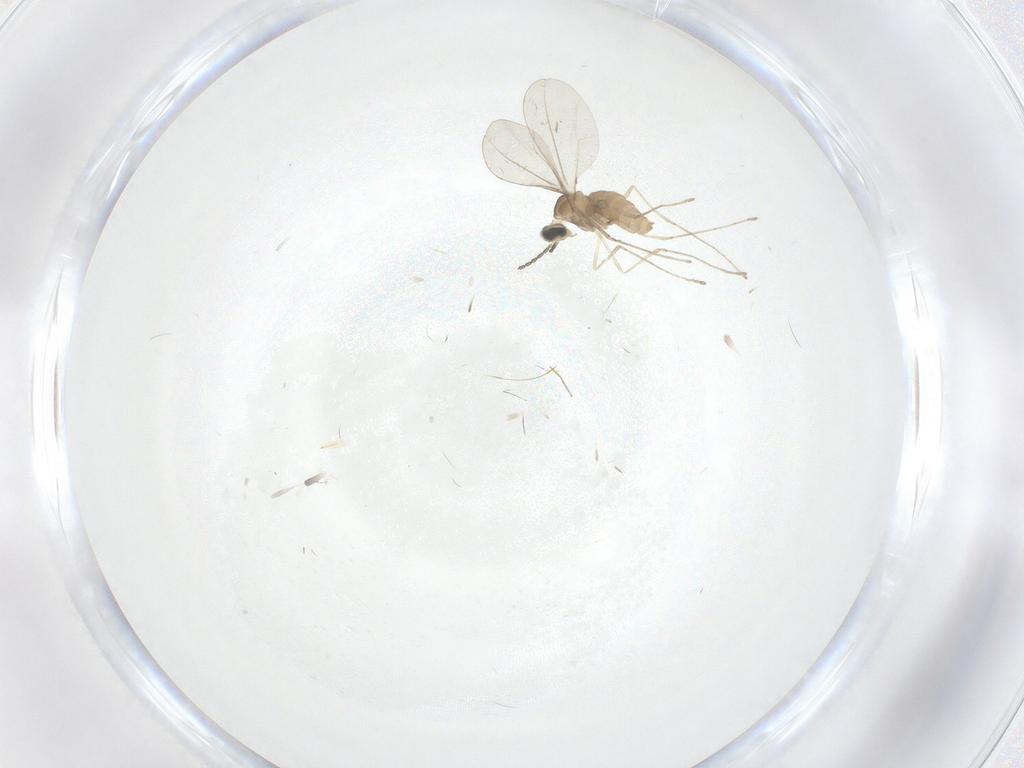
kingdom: Animalia
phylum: Arthropoda
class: Insecta
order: Diptera
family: Cecidomyiidae
